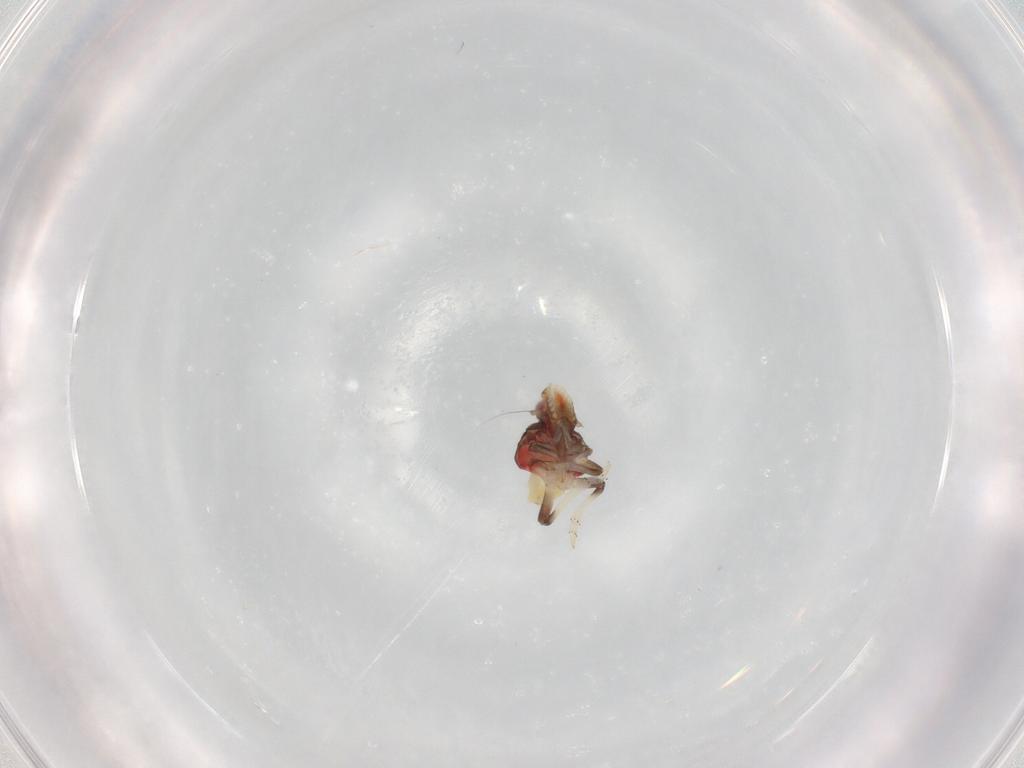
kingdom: Animalia
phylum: Arthropoda
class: Insecta
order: Hemiptera
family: Tropiduchidae
